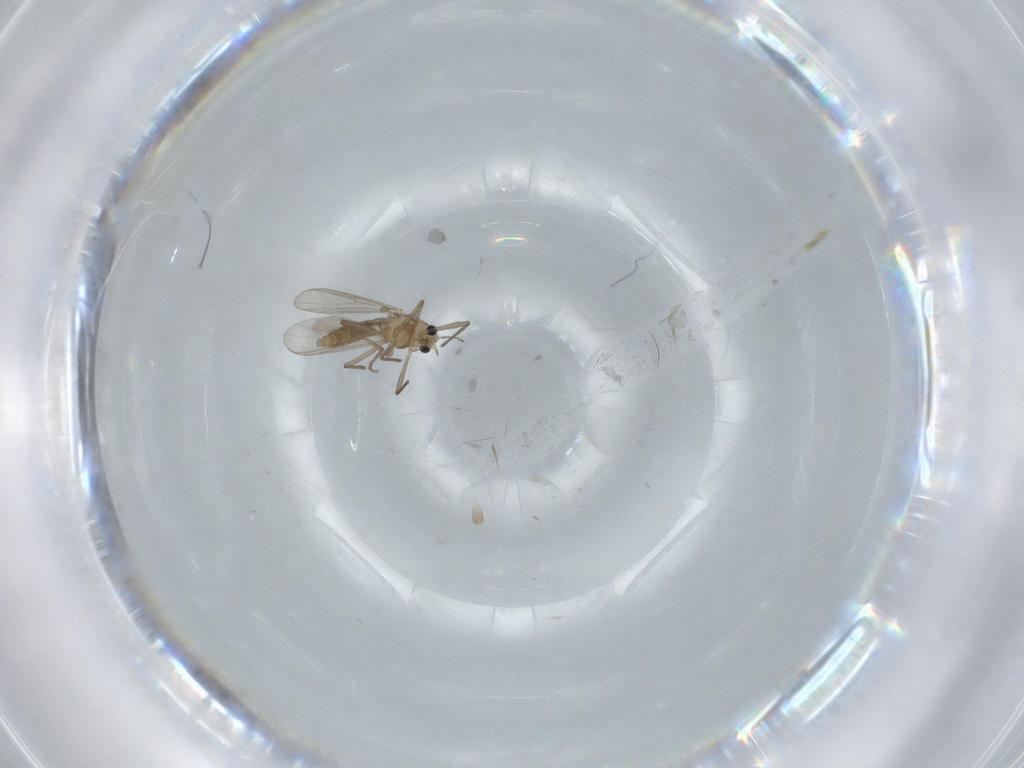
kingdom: Animalia
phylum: Arthropoda
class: Insecta
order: Diptera
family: Chironomidae
